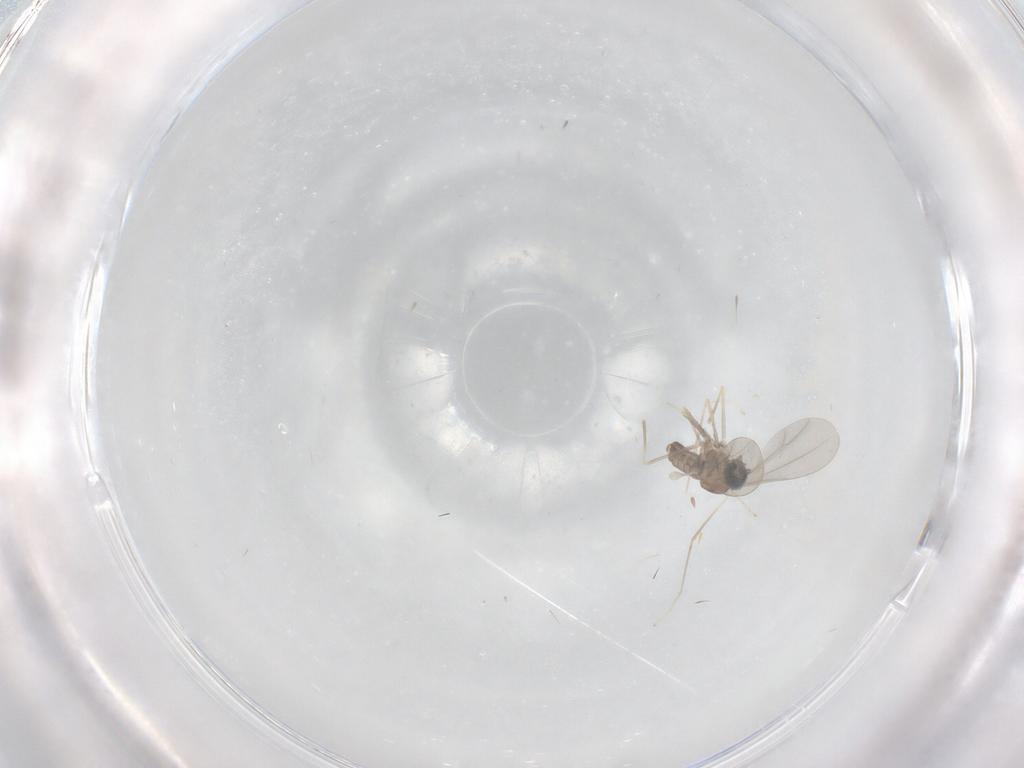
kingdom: Animalia
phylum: Arthropoda
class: Insecta
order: Diptera
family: Cecidomyiidae
